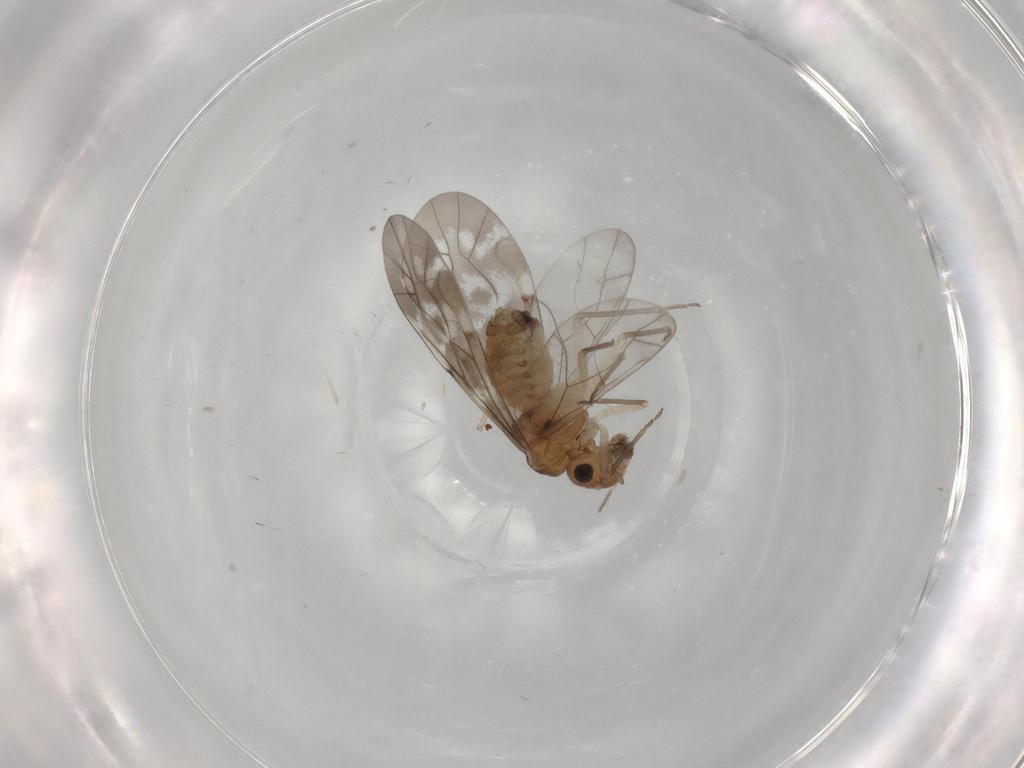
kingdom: Animalia
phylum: Arthropoda
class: Insecta
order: Psocodea
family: Peripsocidae
